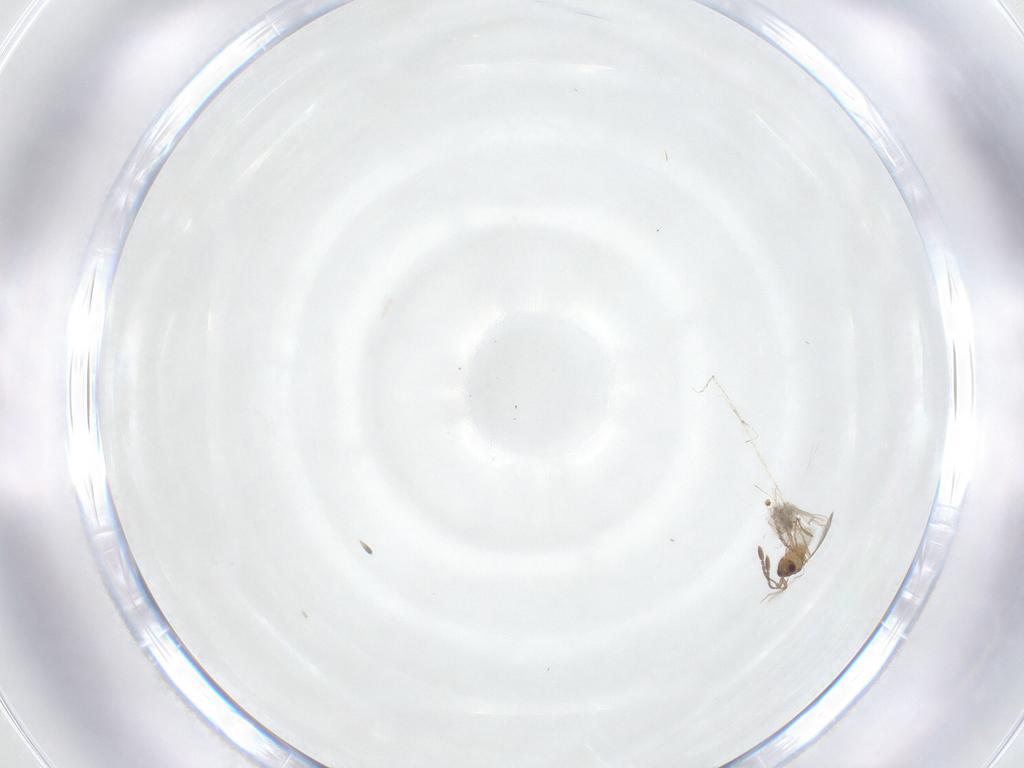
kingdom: Animalia
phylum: Arthropoda
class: Insecta
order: Diptera
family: Cecidomyiidae
